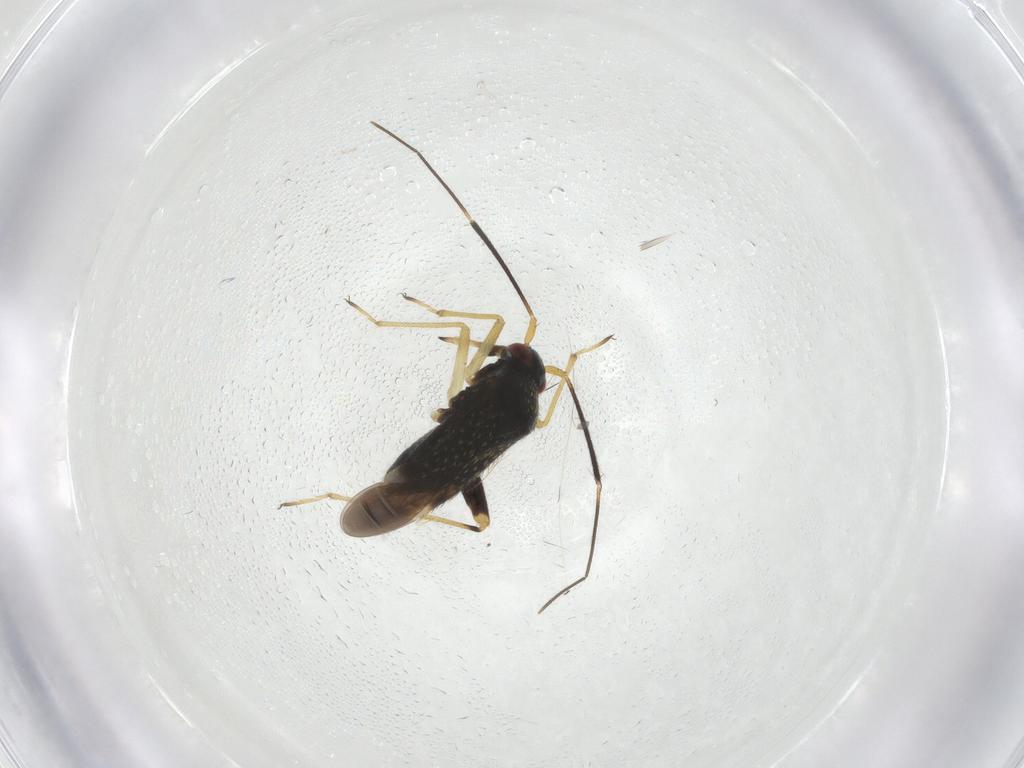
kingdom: Animalia
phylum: Arthropoda
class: Insecta
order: Hemiptera
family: Miridae
